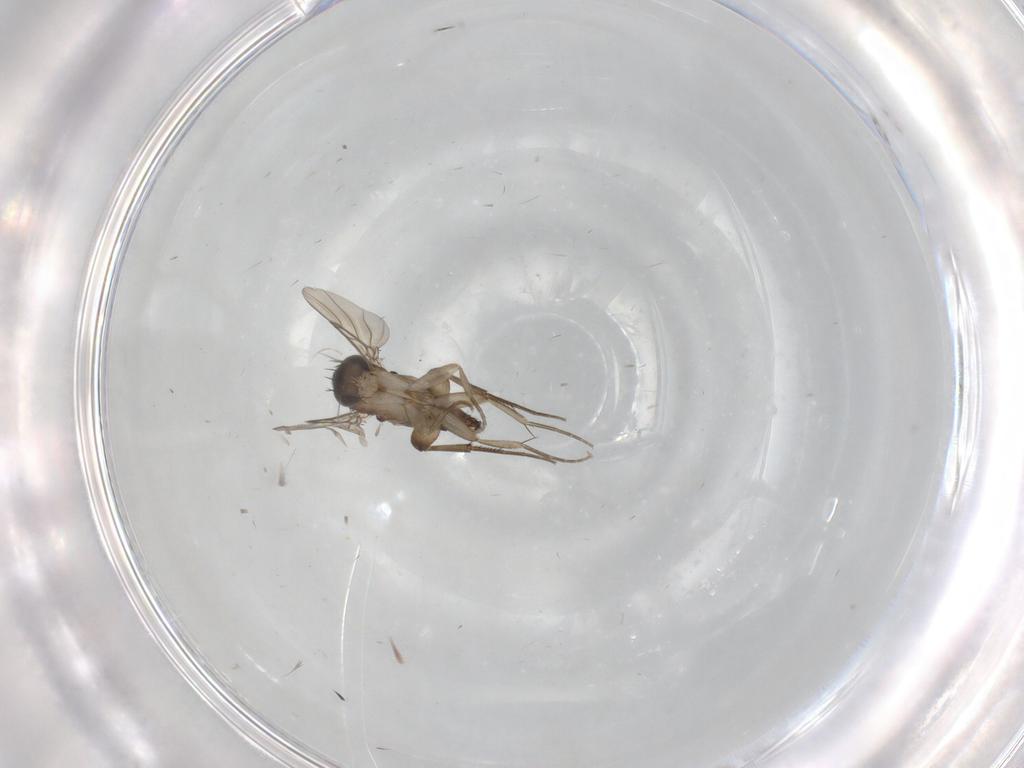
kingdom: Animalia
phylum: Arthropoda
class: Insecta
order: Diptera
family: Phoridae
